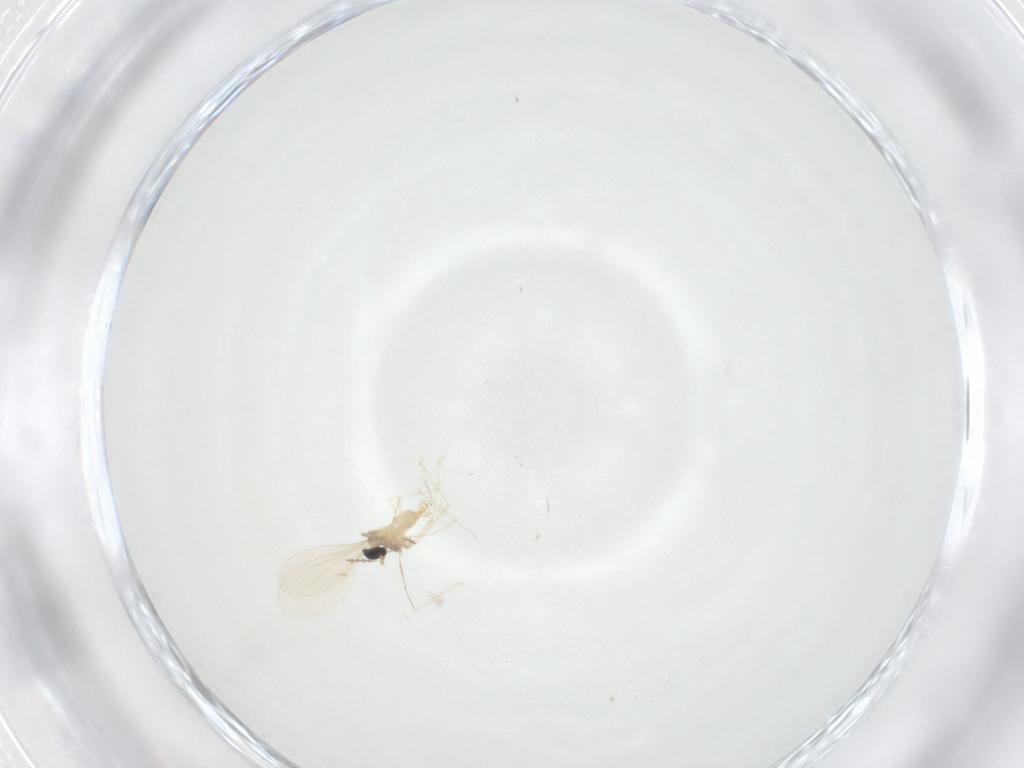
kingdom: Animalia
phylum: Arthropoda
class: Insecta
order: Diptera
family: Cecidomyiidae
